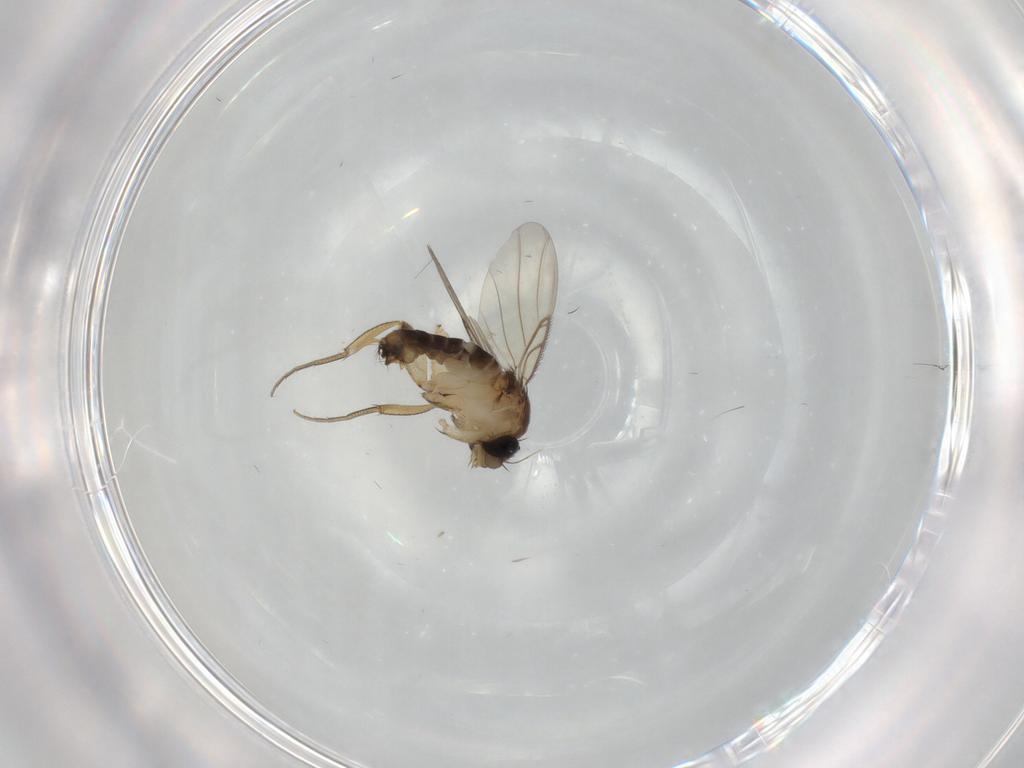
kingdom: Animalia
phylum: Arthropoda
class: Insecta
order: Diptera
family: Phoridae
